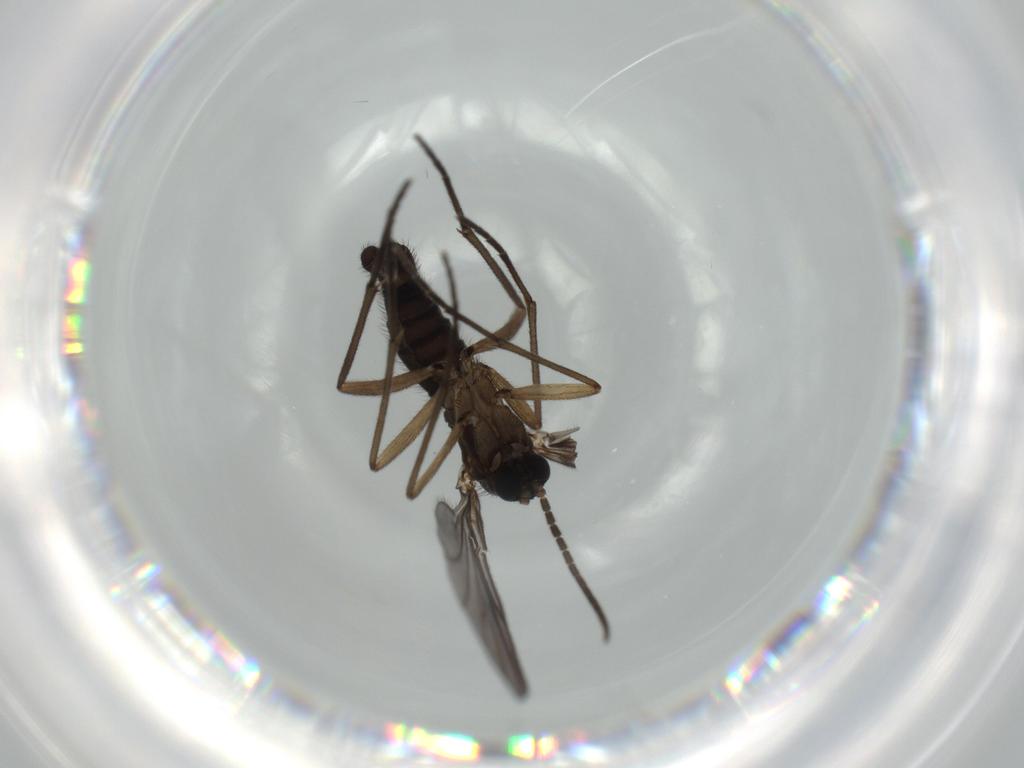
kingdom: Animalia
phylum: Arthropoda
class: Insecta
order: Diptera
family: Sciaridae
